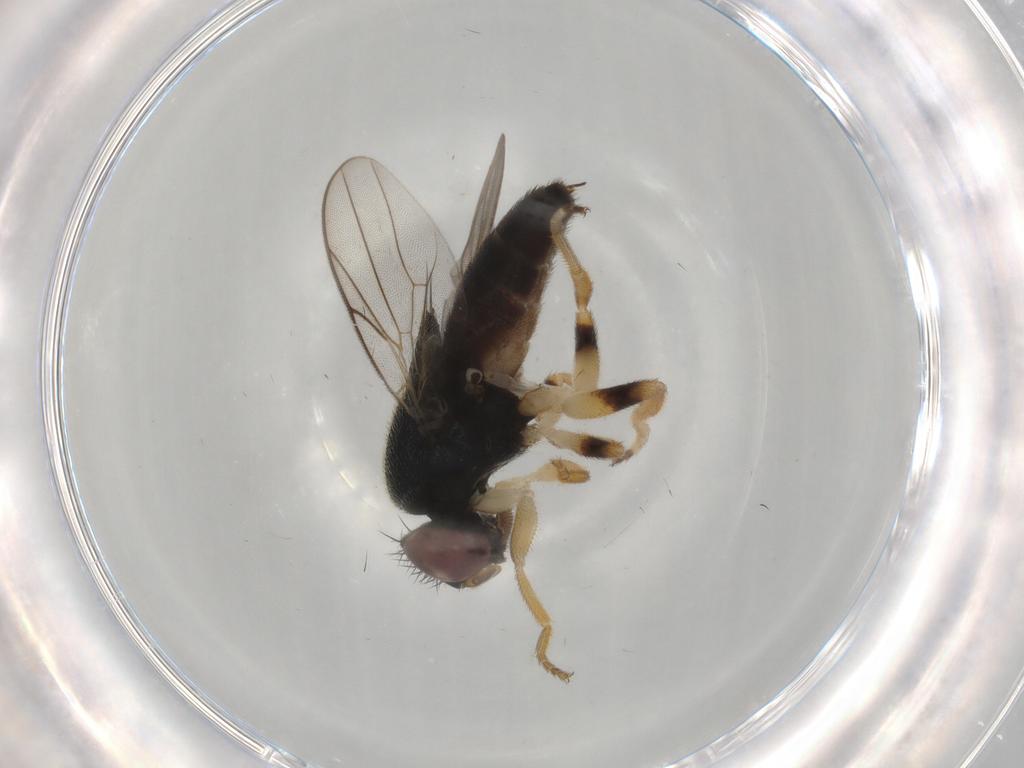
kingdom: Animalia
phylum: Arthropoda
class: Insecta
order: Diptera
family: Chloropidae
